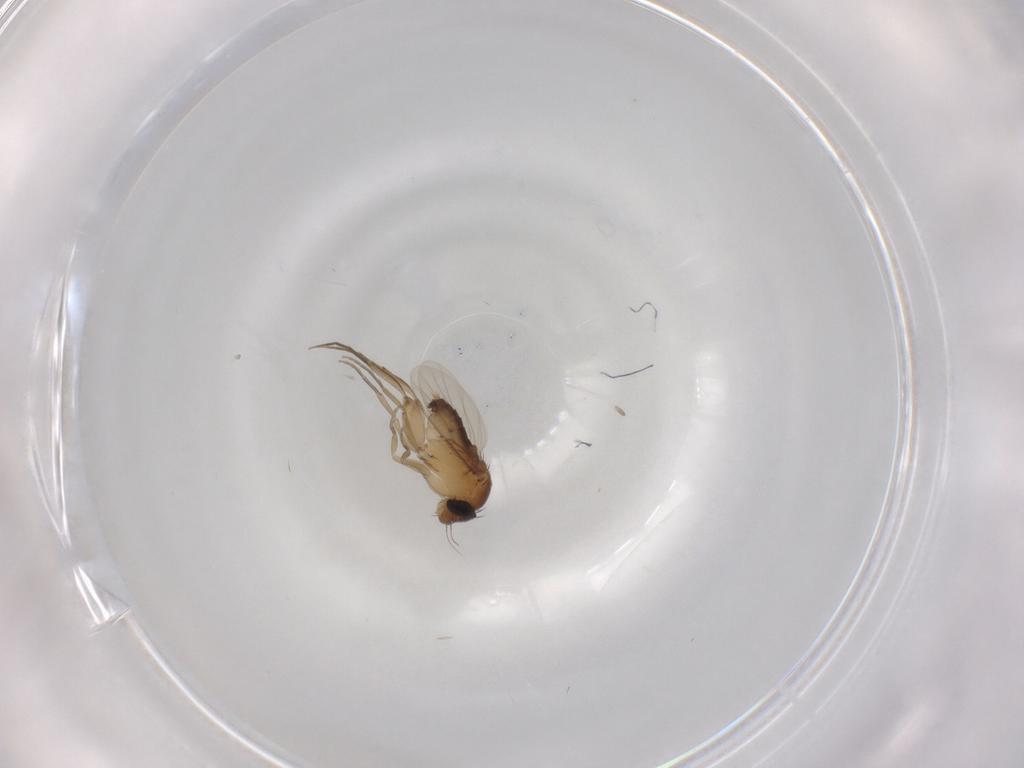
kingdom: Animalia
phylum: Arthropoda
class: Insecta
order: Diptera
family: Phoridae
